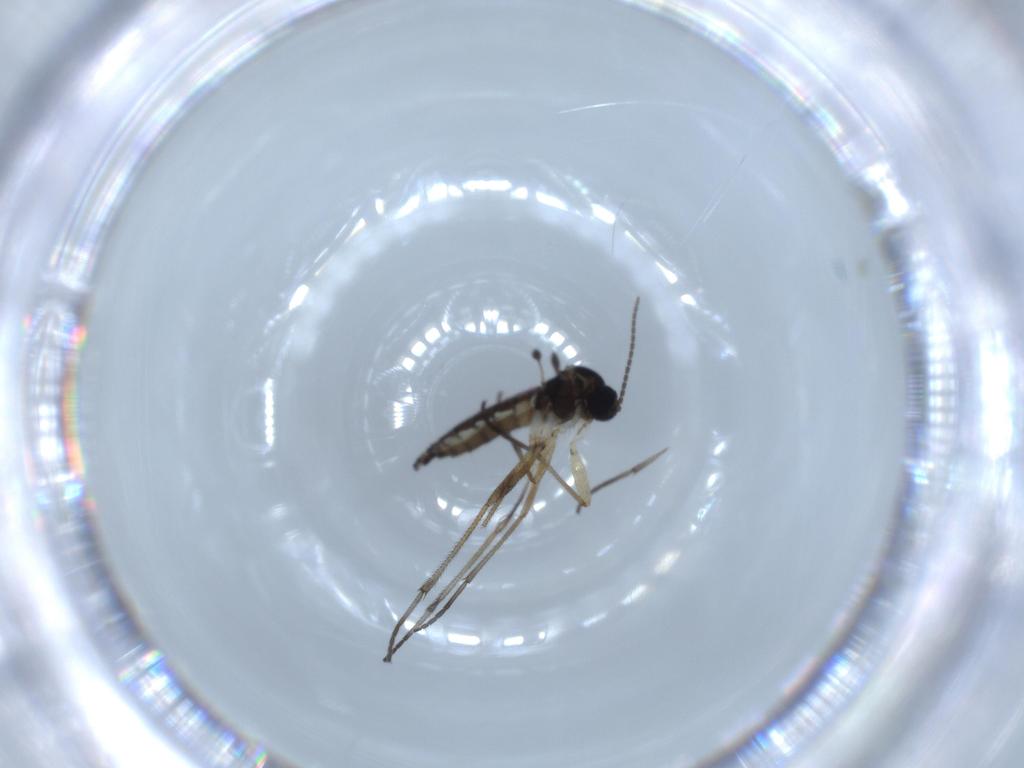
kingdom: Animalia
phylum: Arthropoda
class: Insecta
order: Diptera
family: Sciaridae
